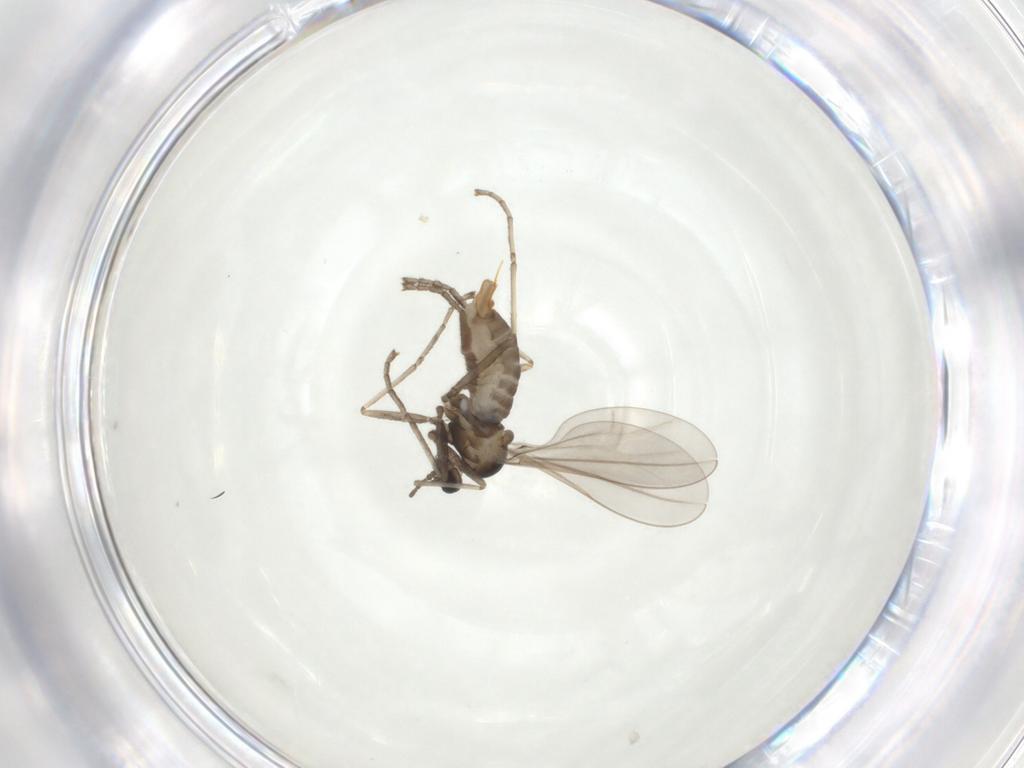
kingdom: Animalia
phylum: Arthropoda
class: Insecta
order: Diptera
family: Cecidomyiidae
